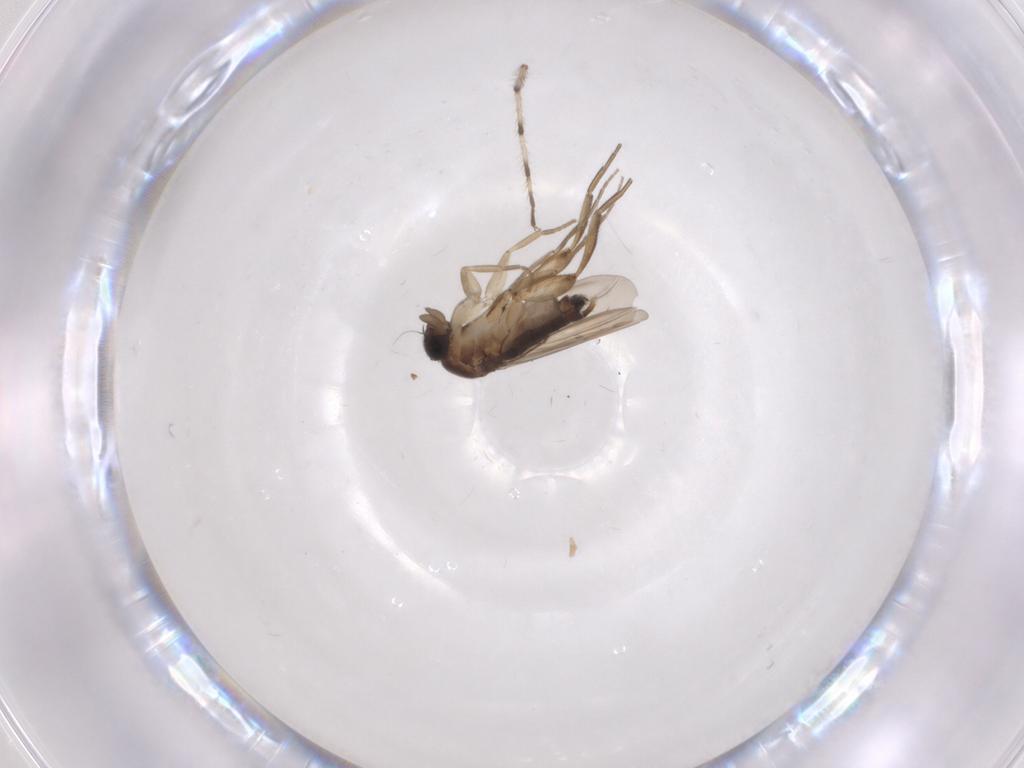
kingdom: Animalia
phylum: Arthropoda
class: Insecta
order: Diptera
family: Phoridae
